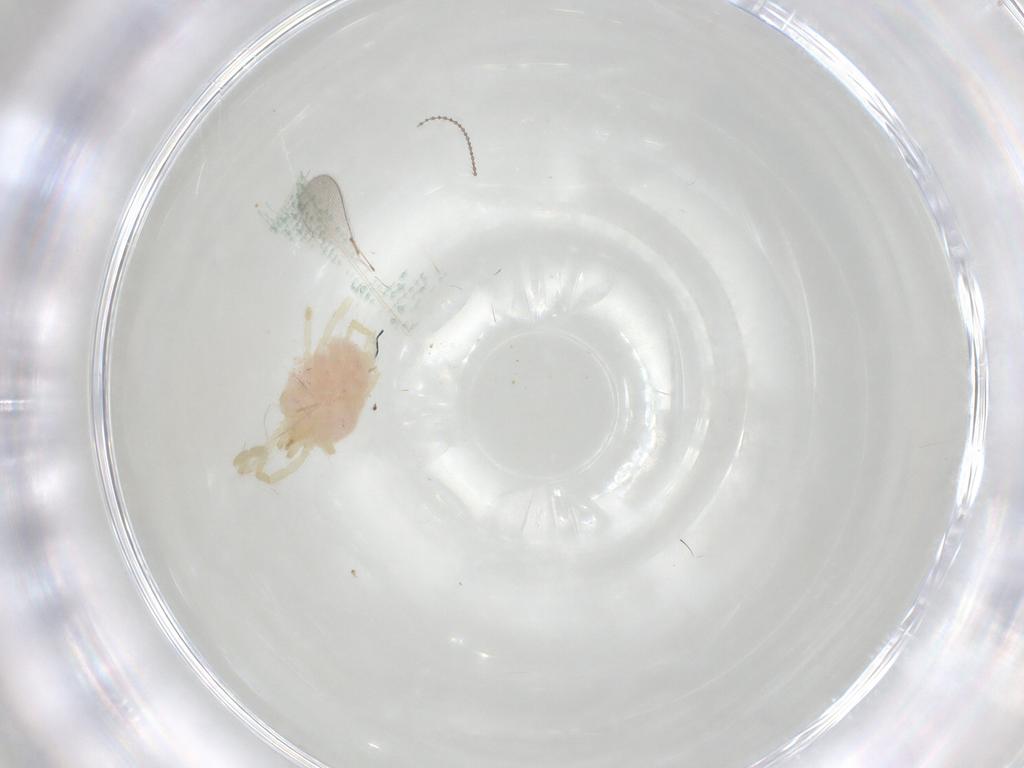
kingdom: Animalia
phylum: Arthropoda
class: Arachnida
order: Trombidiformes
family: Erythraeidae
